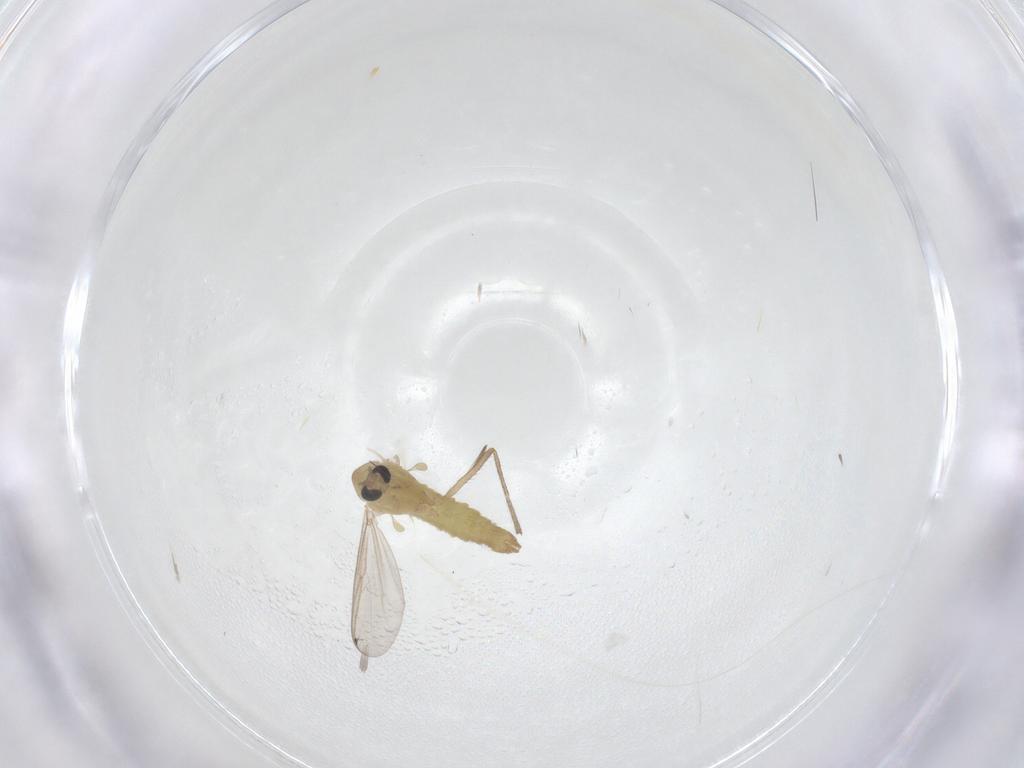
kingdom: Animalia
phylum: Arthropoda
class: Insecta
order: Diptera
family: Chironomidae
